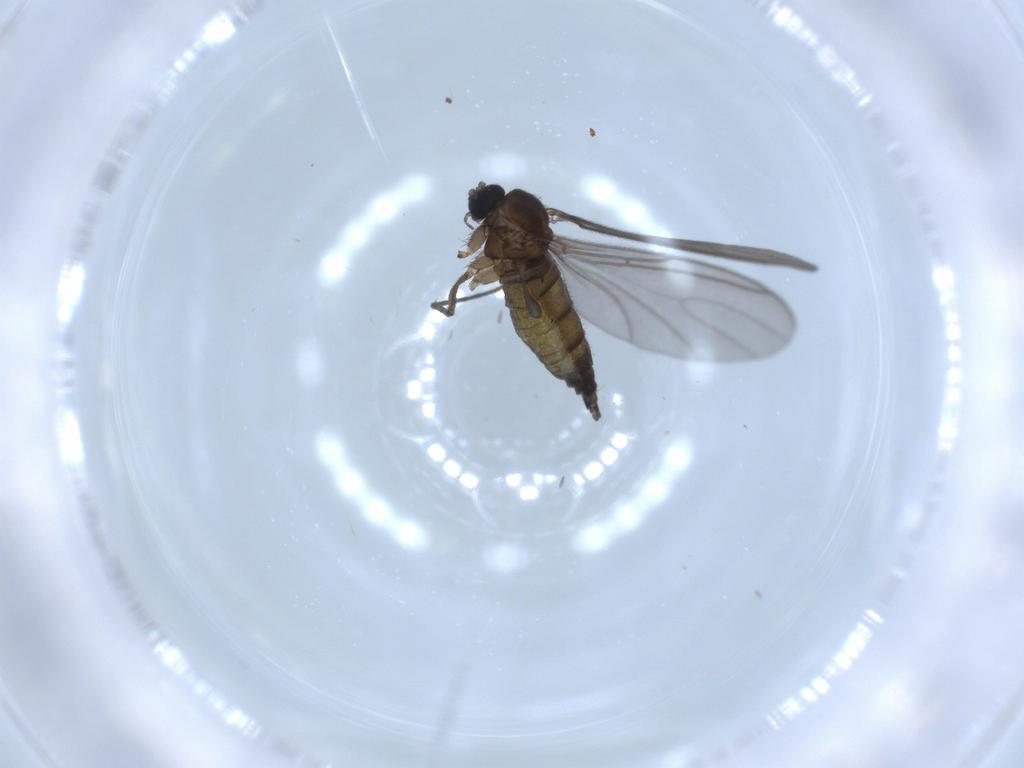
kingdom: Animalia
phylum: Arthropoda
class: Insecta
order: Diptera
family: Sciaridae
